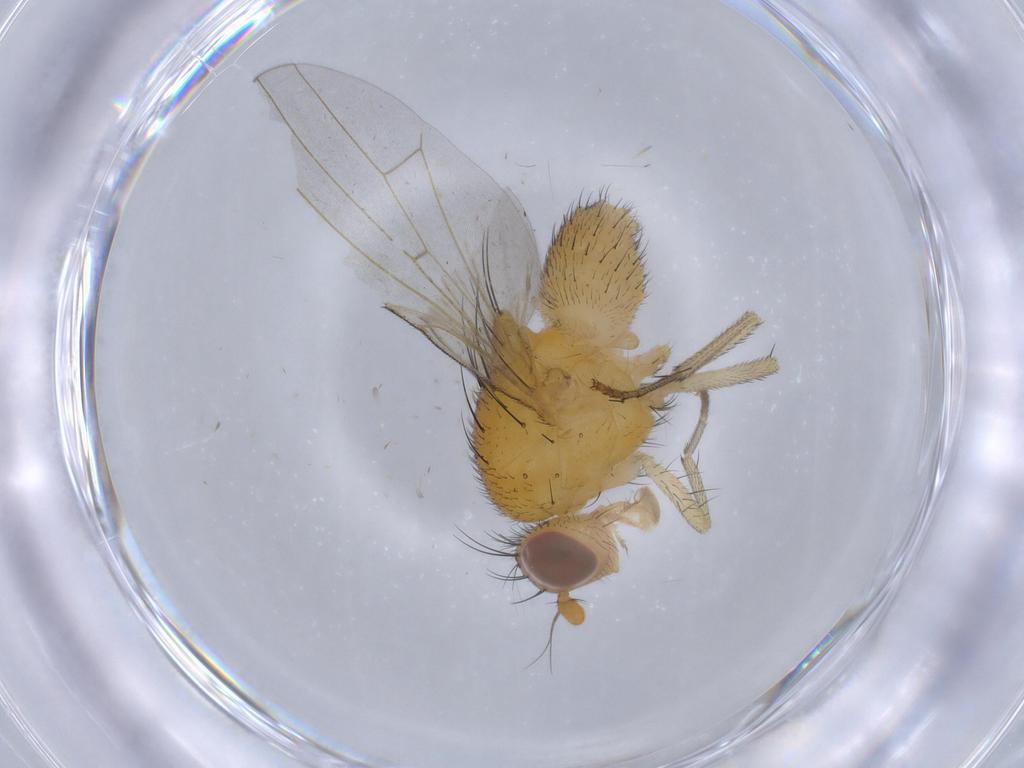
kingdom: Animalia
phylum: Arthropoda
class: Insecta
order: Diptera
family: Sciaridae
